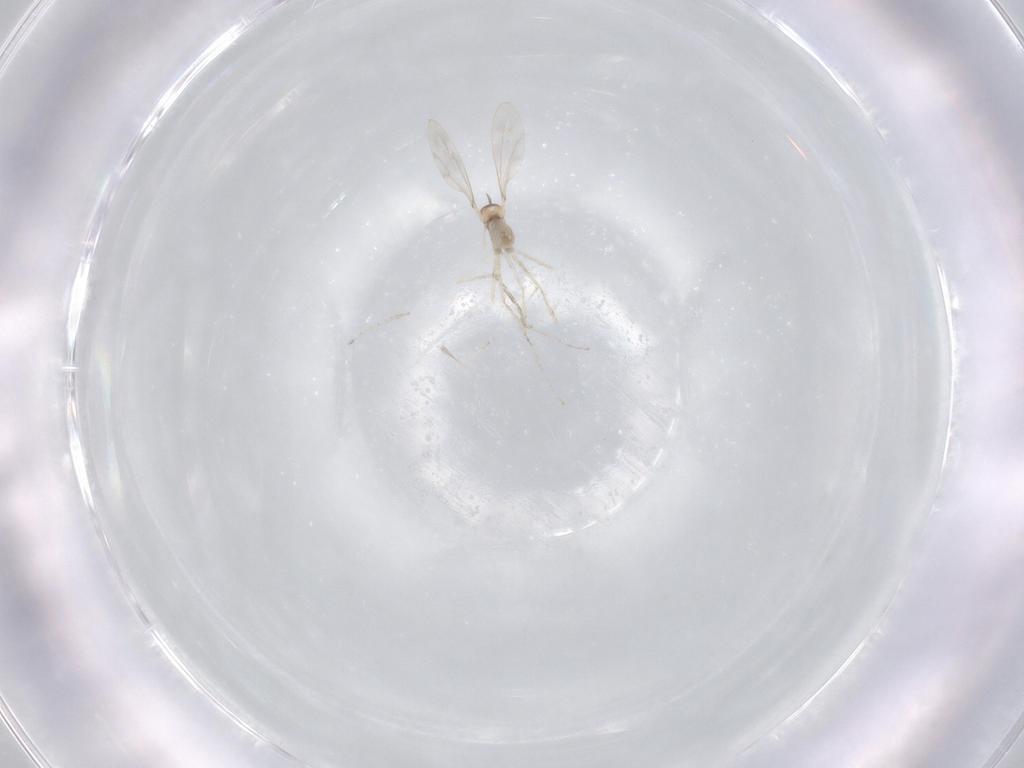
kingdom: Animalia
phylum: Arthropoda
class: Insecta
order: Diptera
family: Cecidomyiidae
